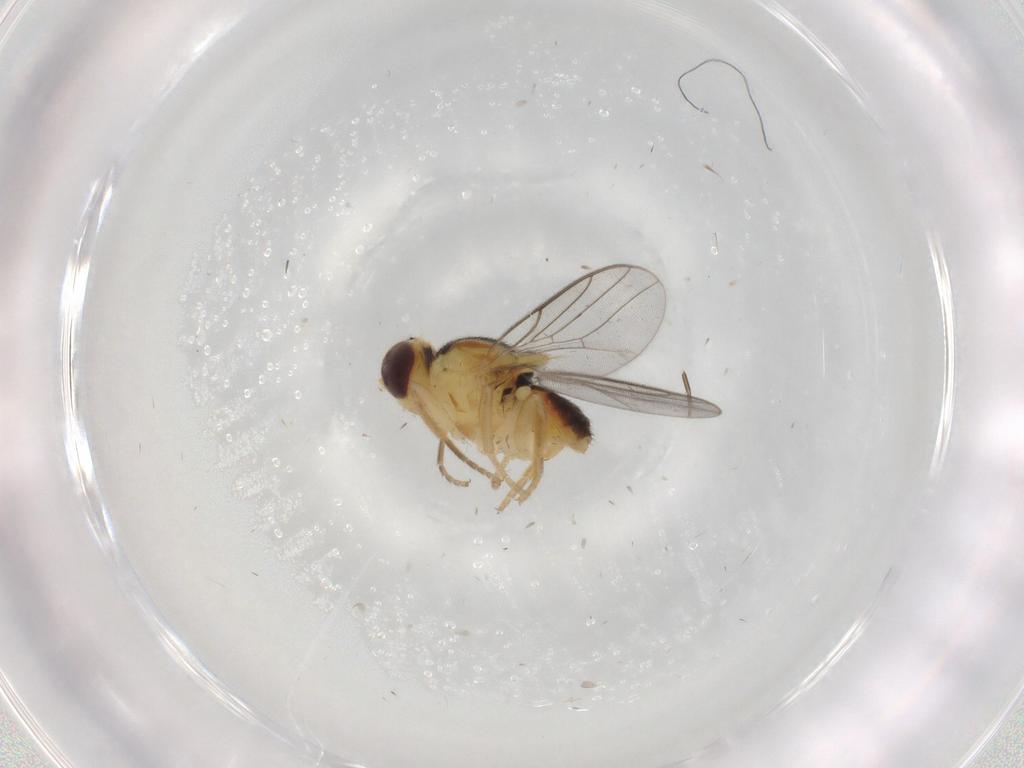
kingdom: Animalia
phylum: Arthropoda
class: Insecta
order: Diptera
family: Chloropidae
